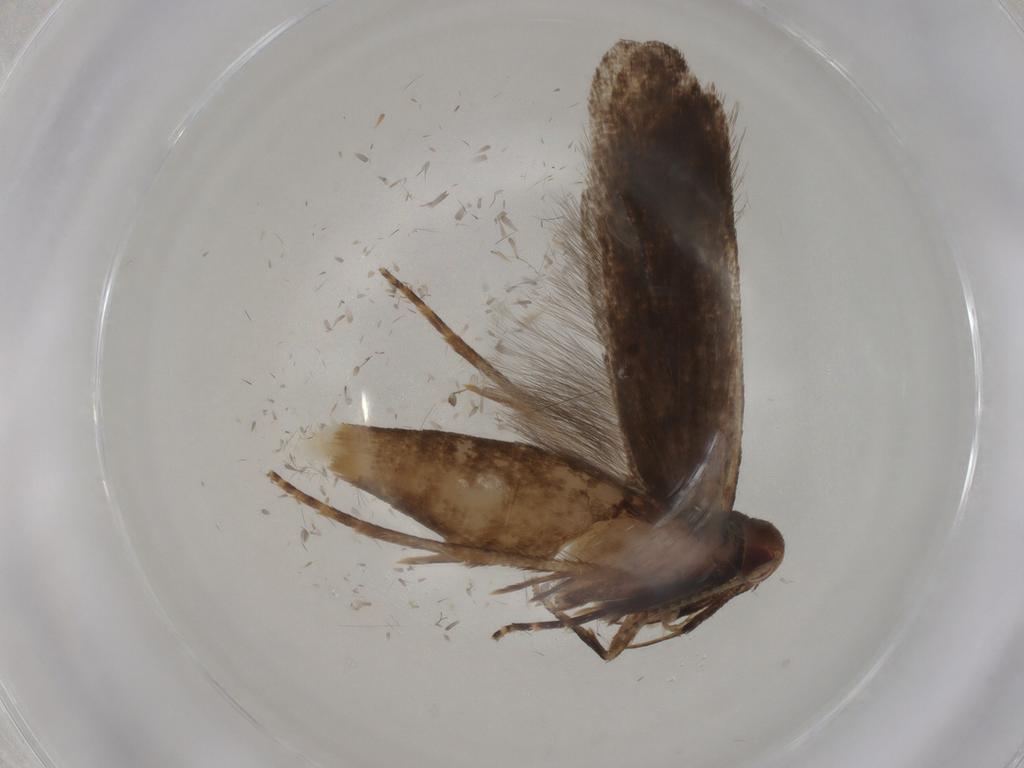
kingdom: Animalia
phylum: Arthropoda
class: Insecta
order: Lepidoptera
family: Gelechiidae
